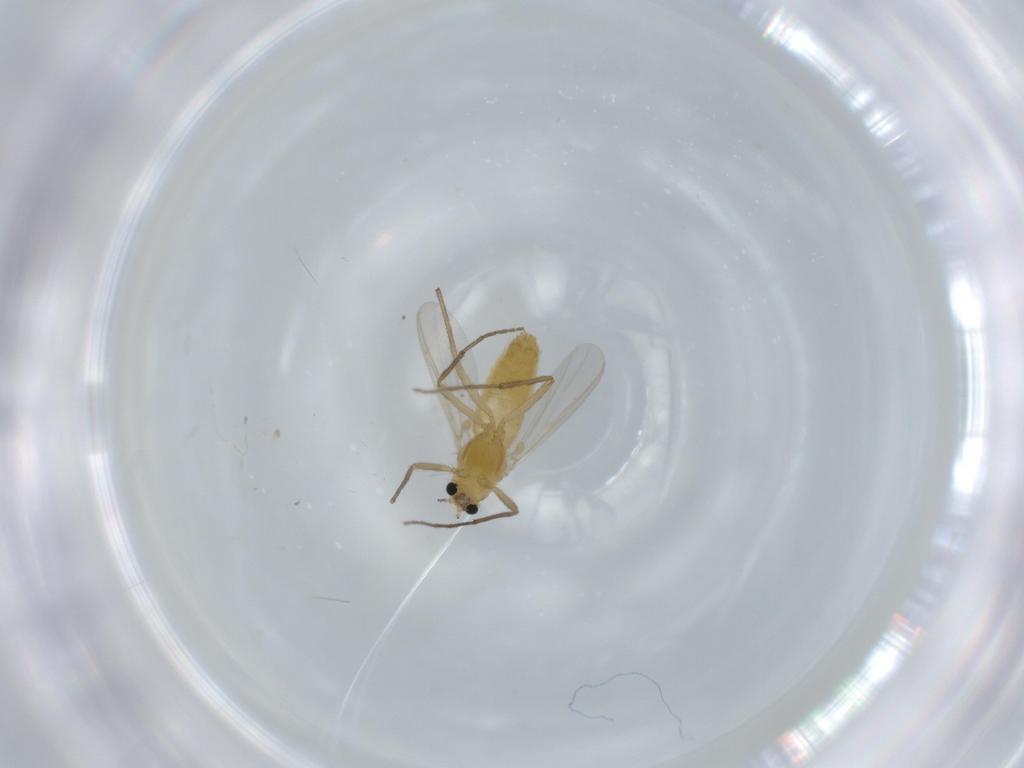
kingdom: Animalia
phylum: Arthropoda
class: Insecta
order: Diptera
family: Chironomidae
